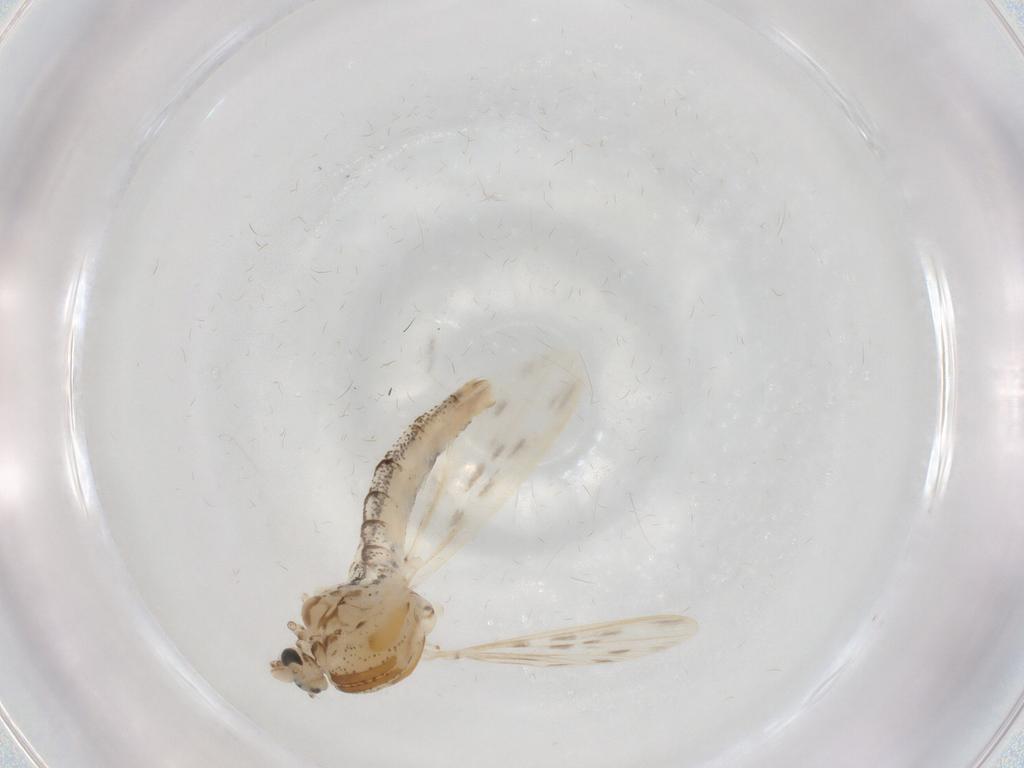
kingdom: Animalia
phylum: Arthropoda
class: Insecta
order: Diptera
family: Chaoboridae
